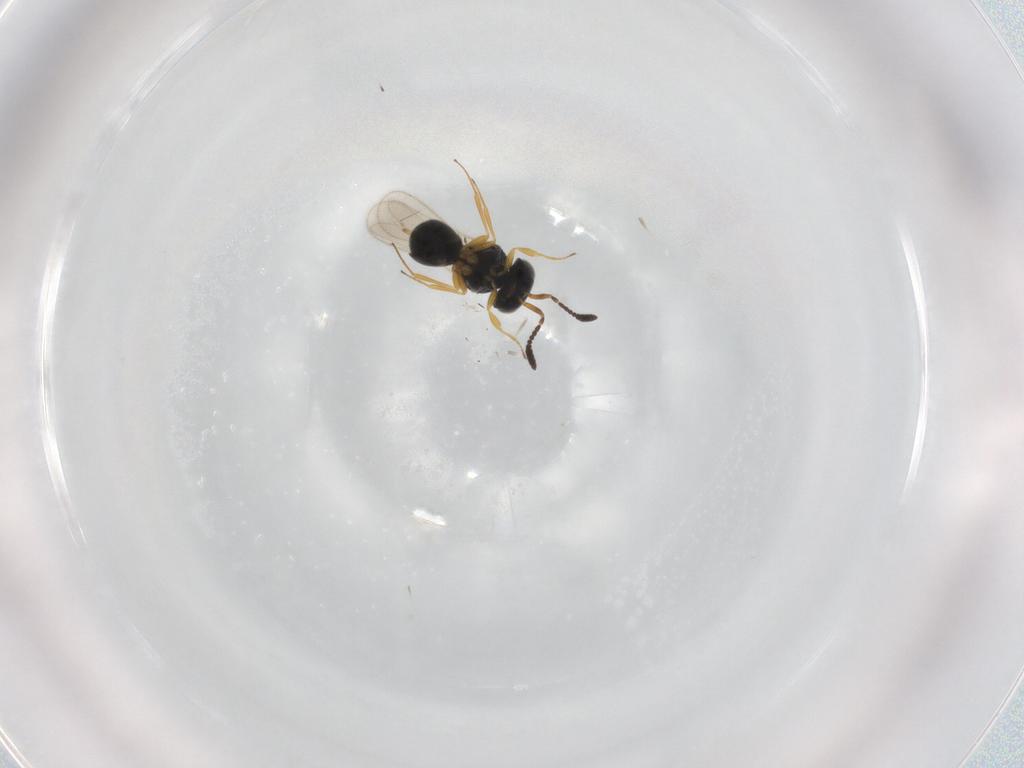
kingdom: Animalia
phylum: Arthropoda
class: Insecta
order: Hymenoptera
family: Scelionidae
